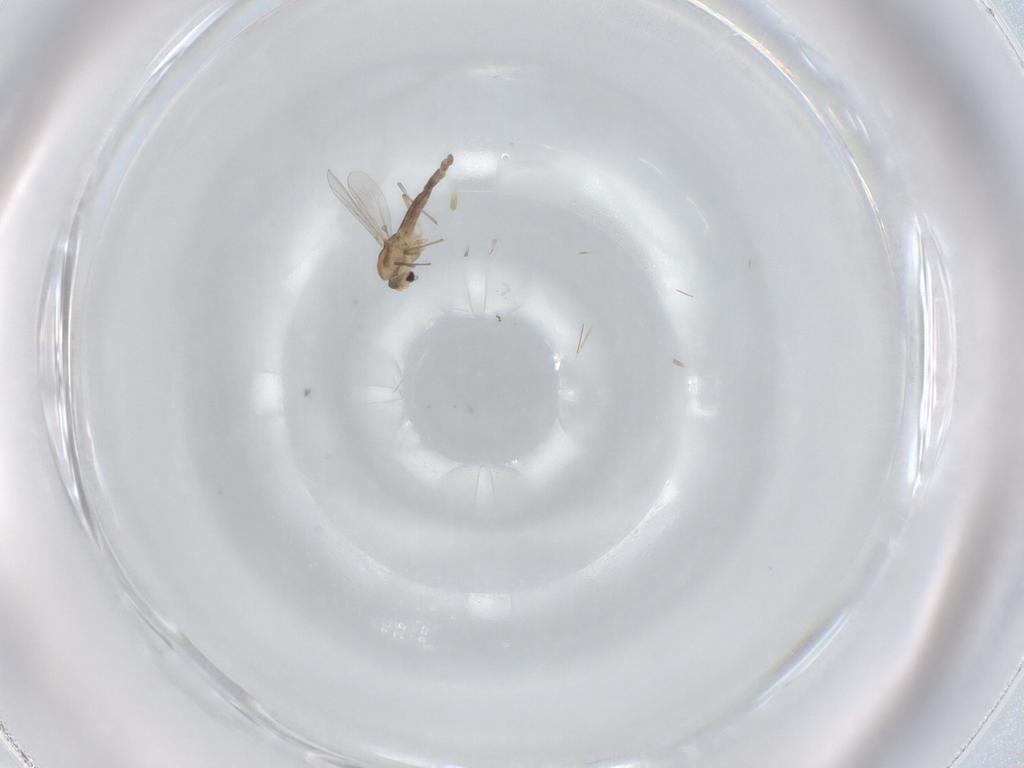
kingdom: Animalia
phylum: Arthropoda
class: Insecta
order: Diptera
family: Chironomidae
